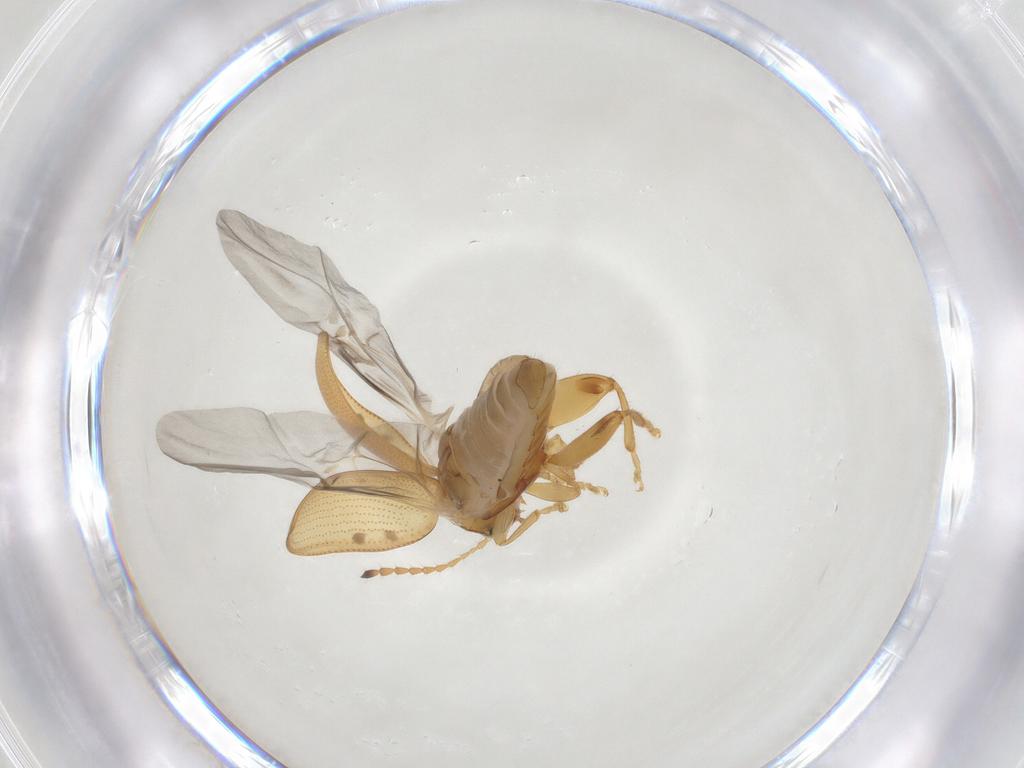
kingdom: Animalia
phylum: Arthropoda
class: Insecta
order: Coleoptera
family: Chrysomelidae
